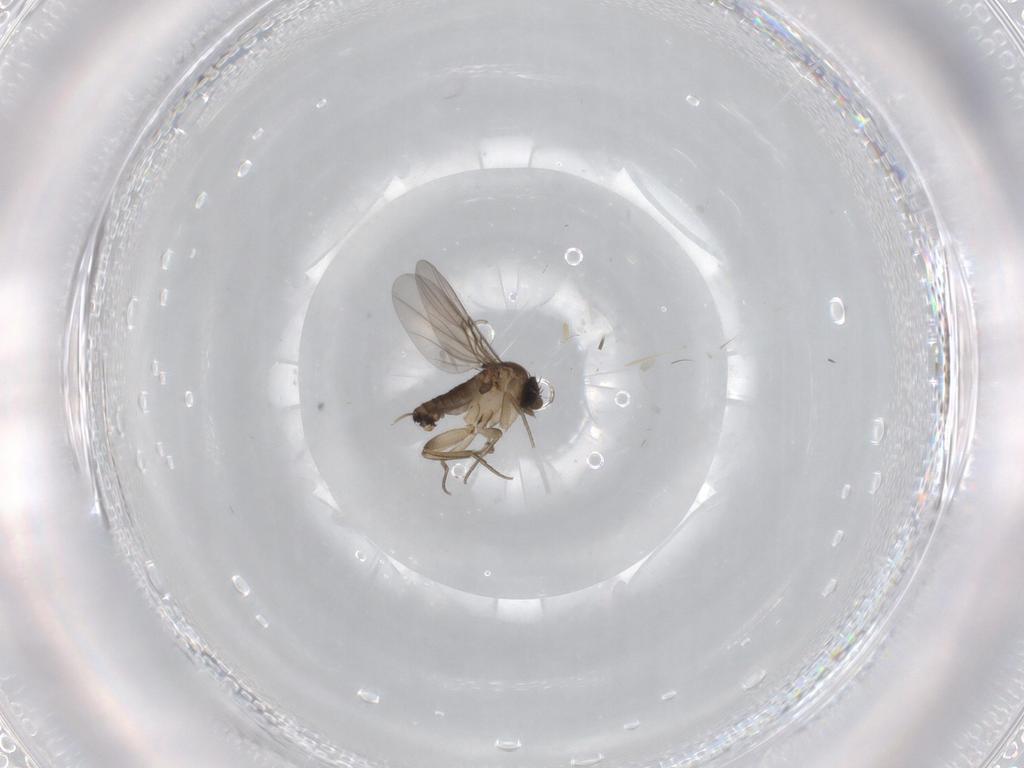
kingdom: Animalia
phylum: Arthropoda
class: Insecta
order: Diptera
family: Phoridae
